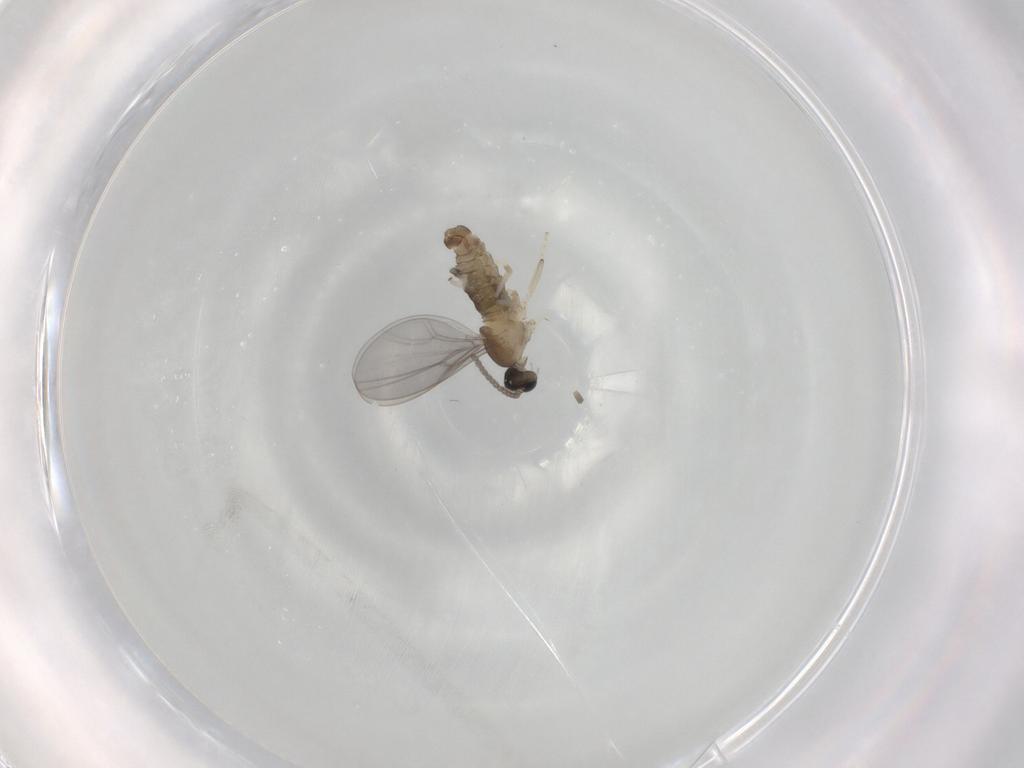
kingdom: Animalia
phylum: Arthropoda
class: Insecta
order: Diptera
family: Cecidomyiidae
